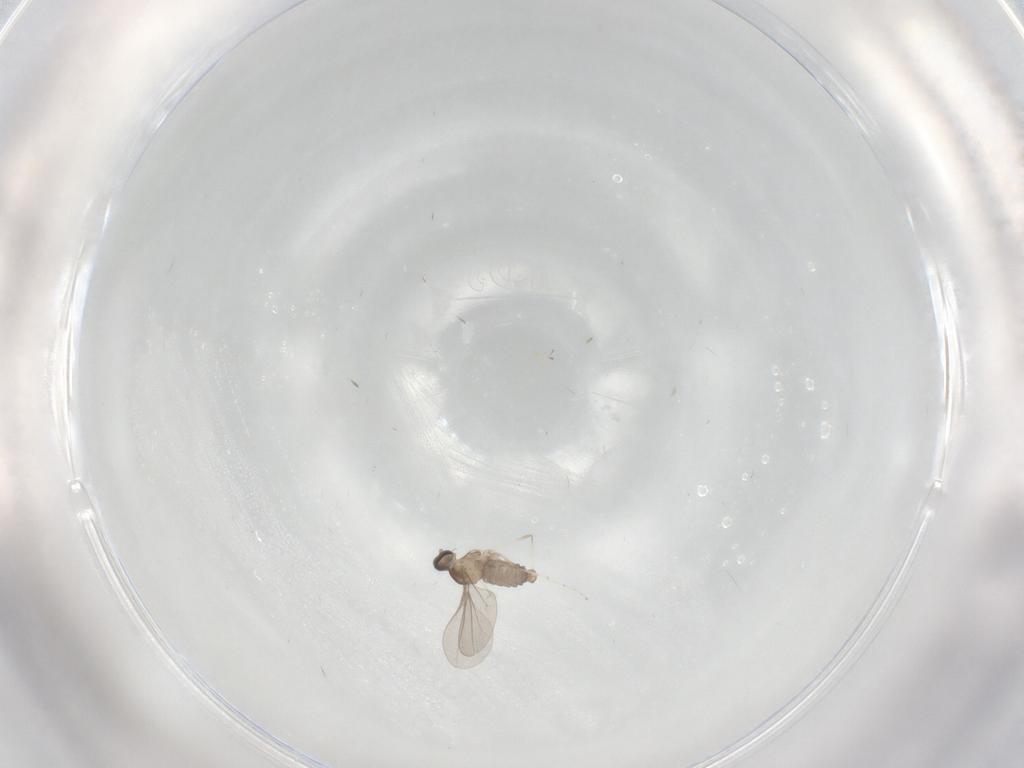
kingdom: Animalia
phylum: Arthropoda
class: Insecta
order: Diptera
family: Cecidomyiidae
